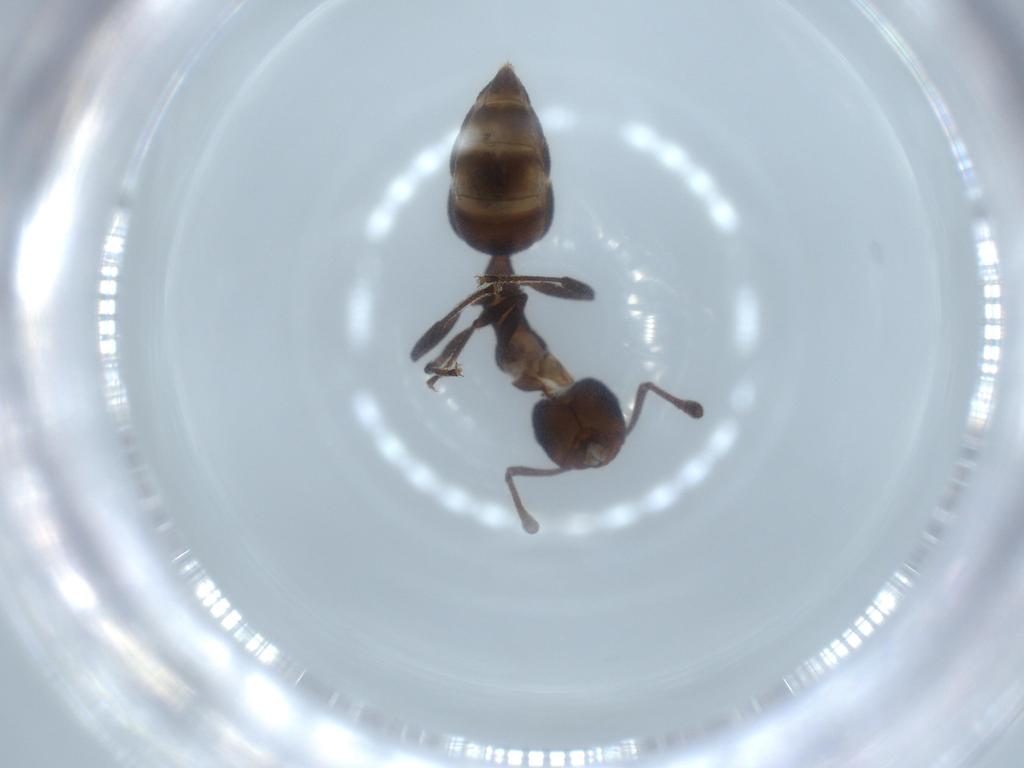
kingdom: Animalia
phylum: Arthropoda
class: Insecta
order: Hymenoptera
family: Formicidae
